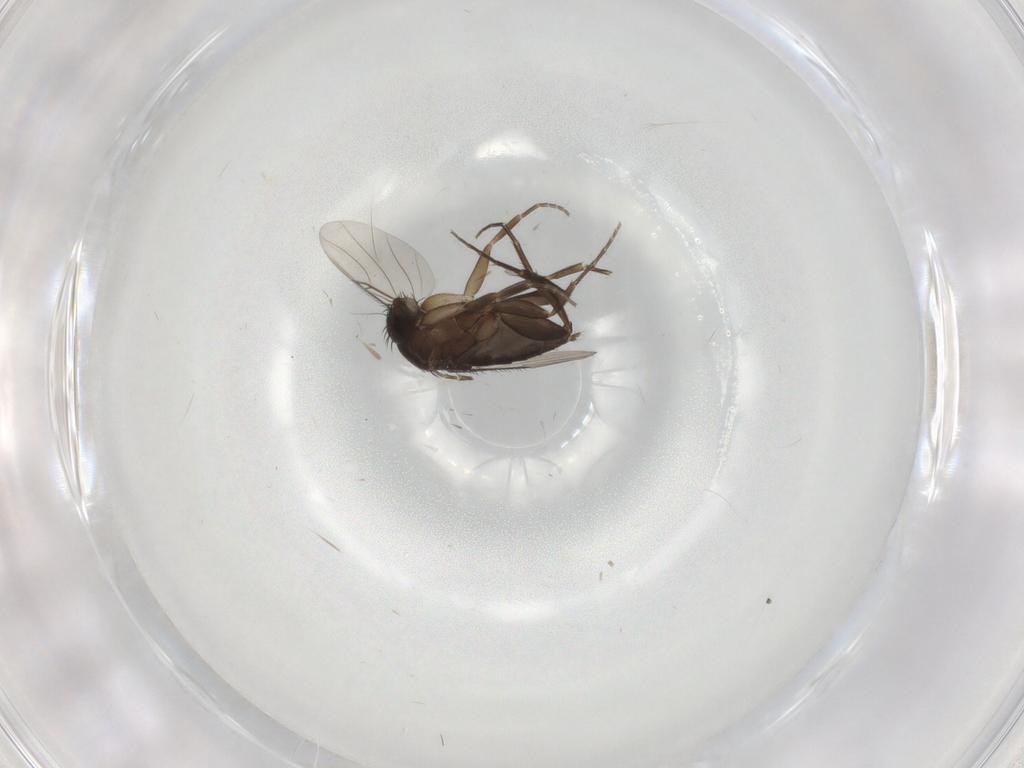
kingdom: Animalia
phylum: Arthropoda
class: Insecta
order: Diptera
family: Phoridae
